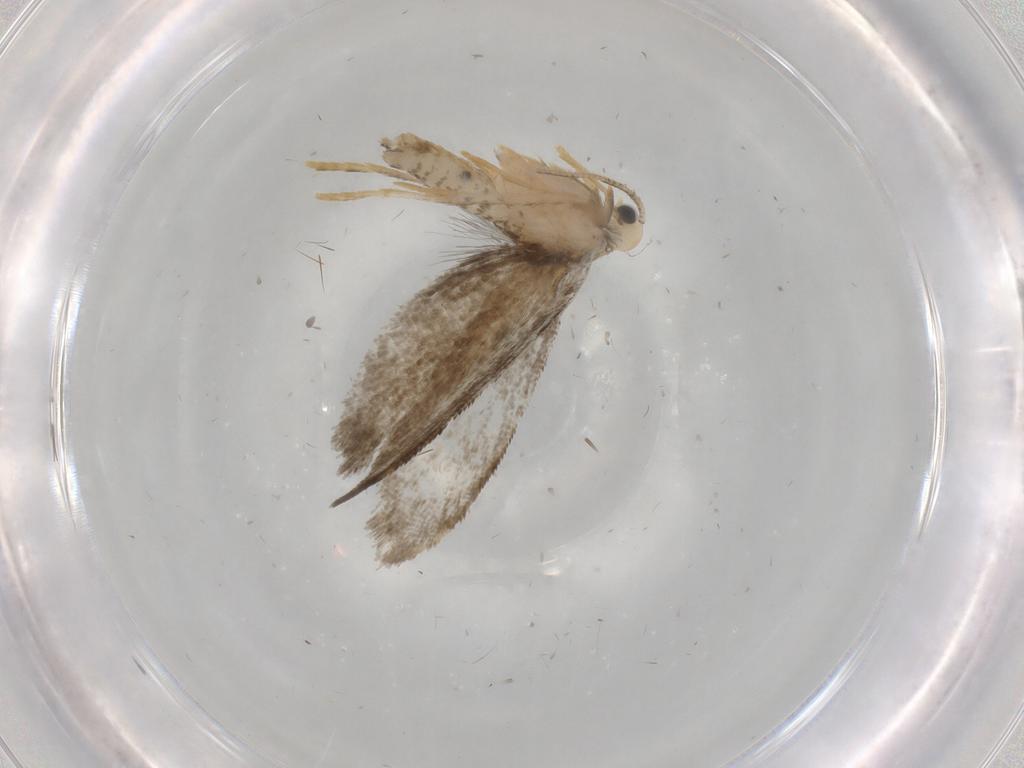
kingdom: Animalia
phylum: Arthropoda
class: Insecta
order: Lepidoptera
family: Psychidae
